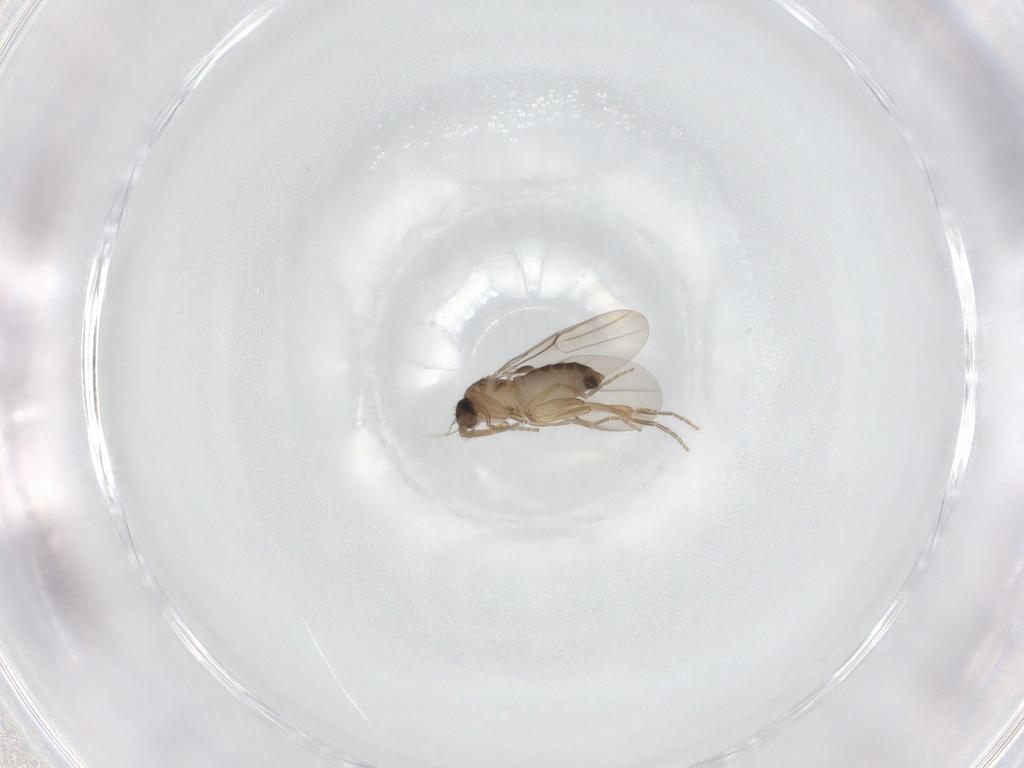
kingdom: Animalia
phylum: Arthropoda
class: Insecta
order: Diptera
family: Phoridae
